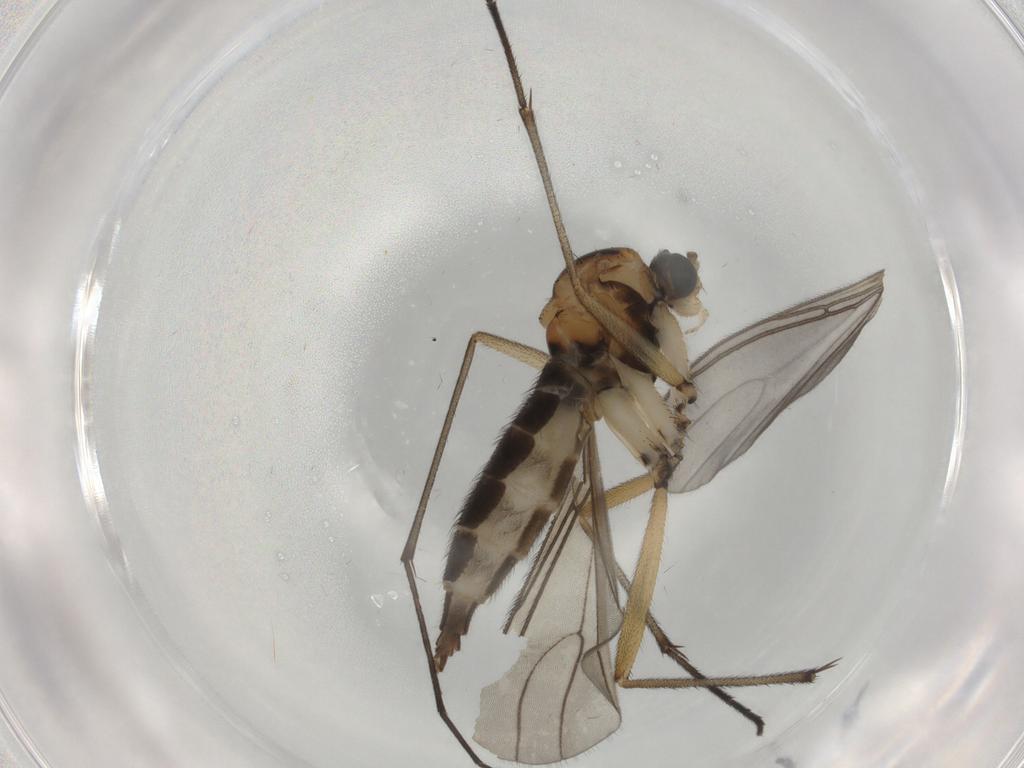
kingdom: Animalia
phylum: Arthropoda
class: Insecta
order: Diptera
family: Sciaridae
